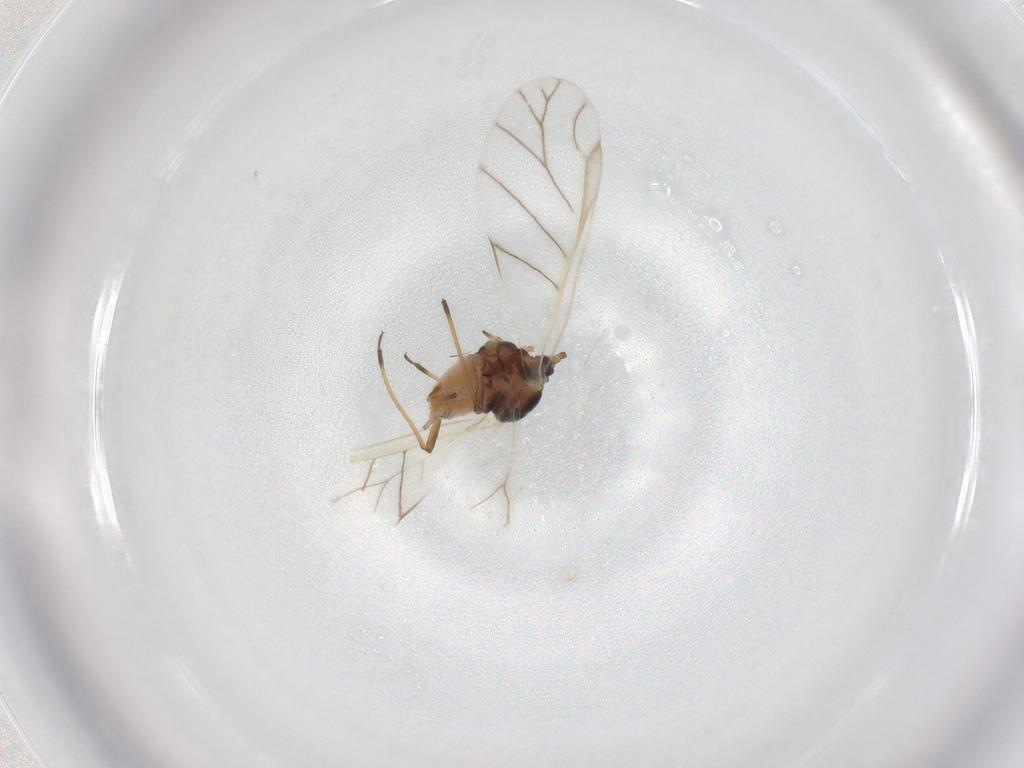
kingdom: Animalia
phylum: Arthropoda
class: Insecta
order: Hemiptera
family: Aphididae
